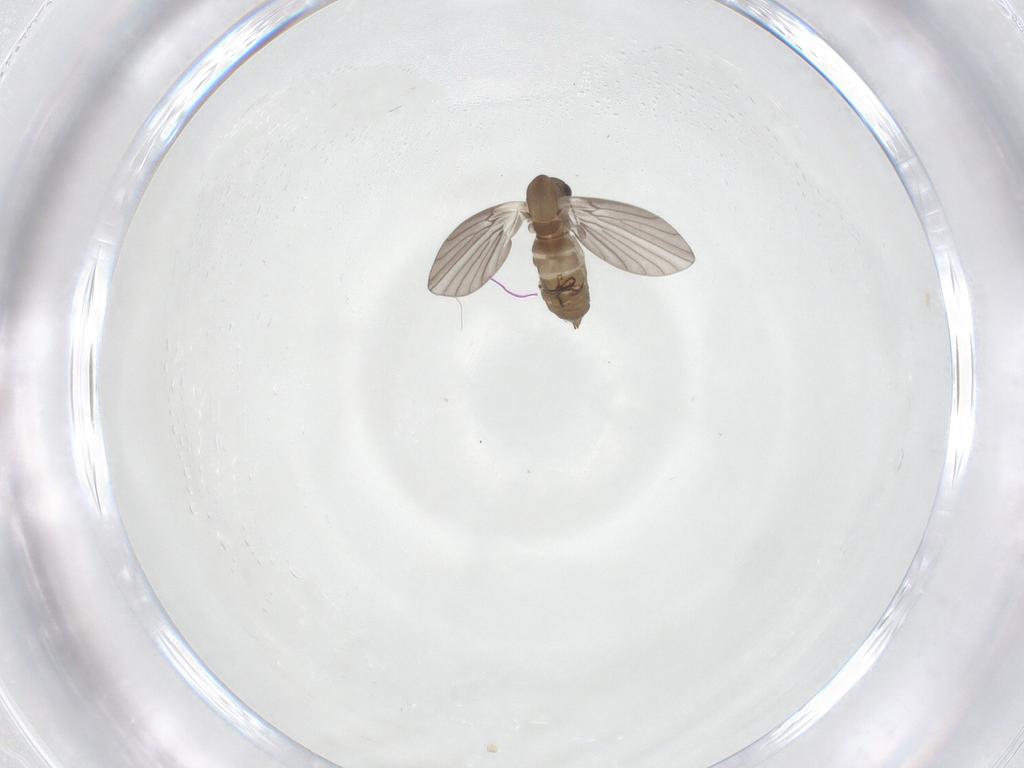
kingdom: Animalia
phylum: Arthropoda
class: Insecta
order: Diptera
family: Psychodidae
